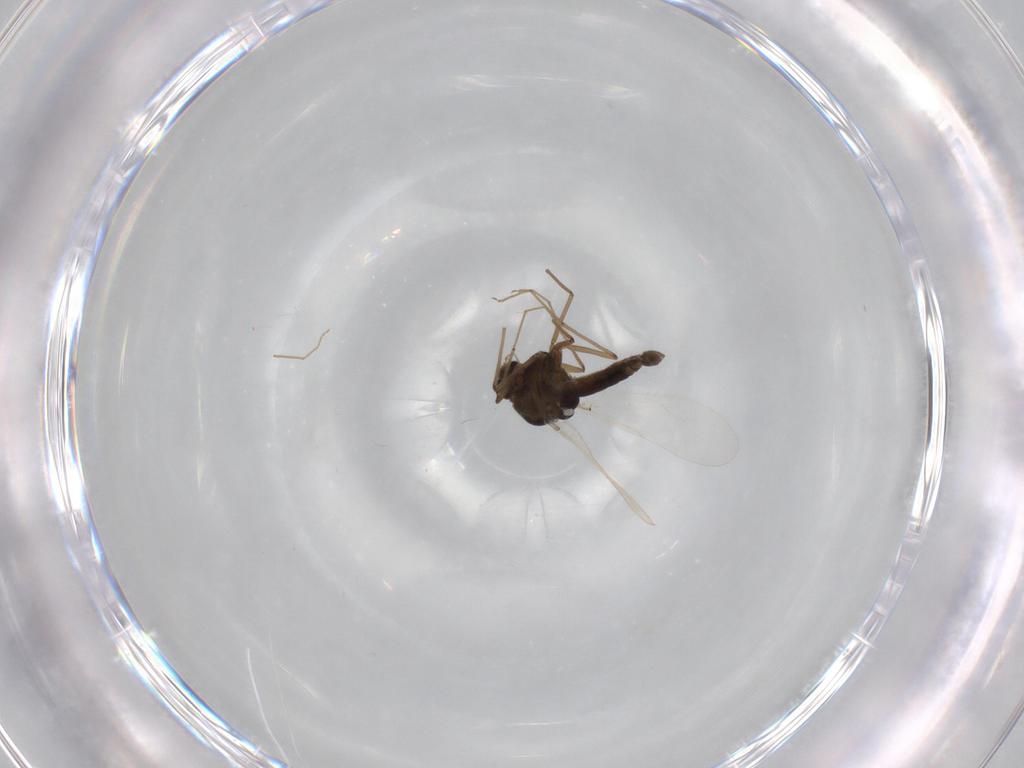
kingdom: Animalia
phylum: Arthropoda
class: Insecta
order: Diptera
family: Chironomidae
